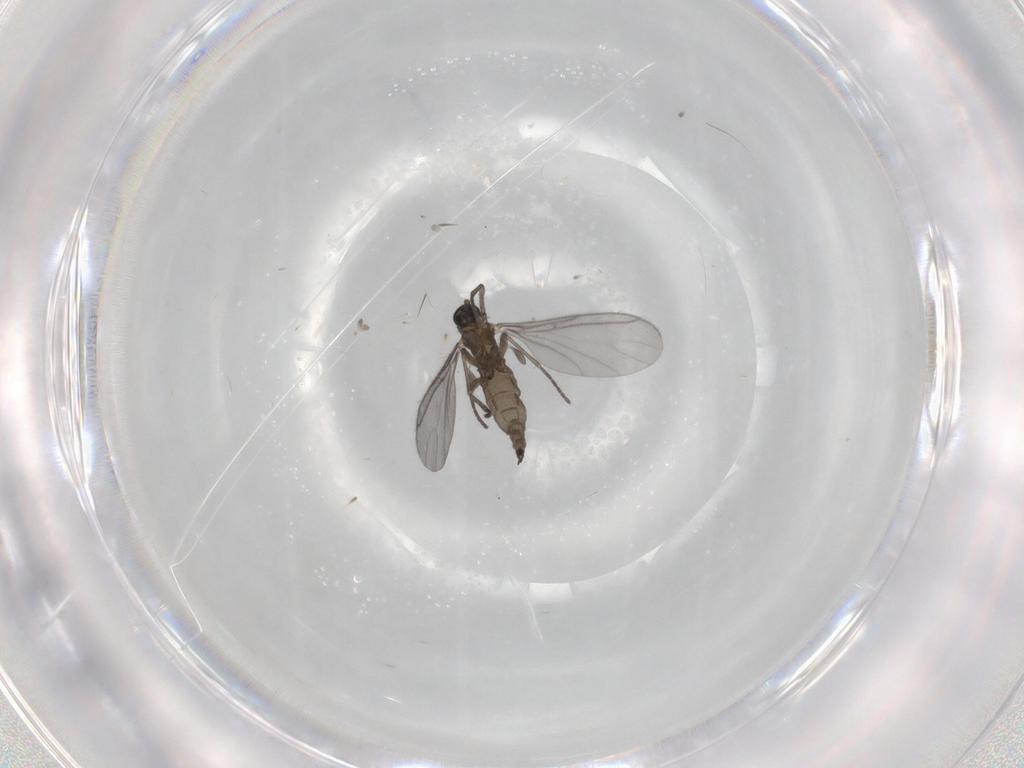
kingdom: Animalia
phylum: Arthropoda
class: Insecta
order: Diptera
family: Sciaridae
